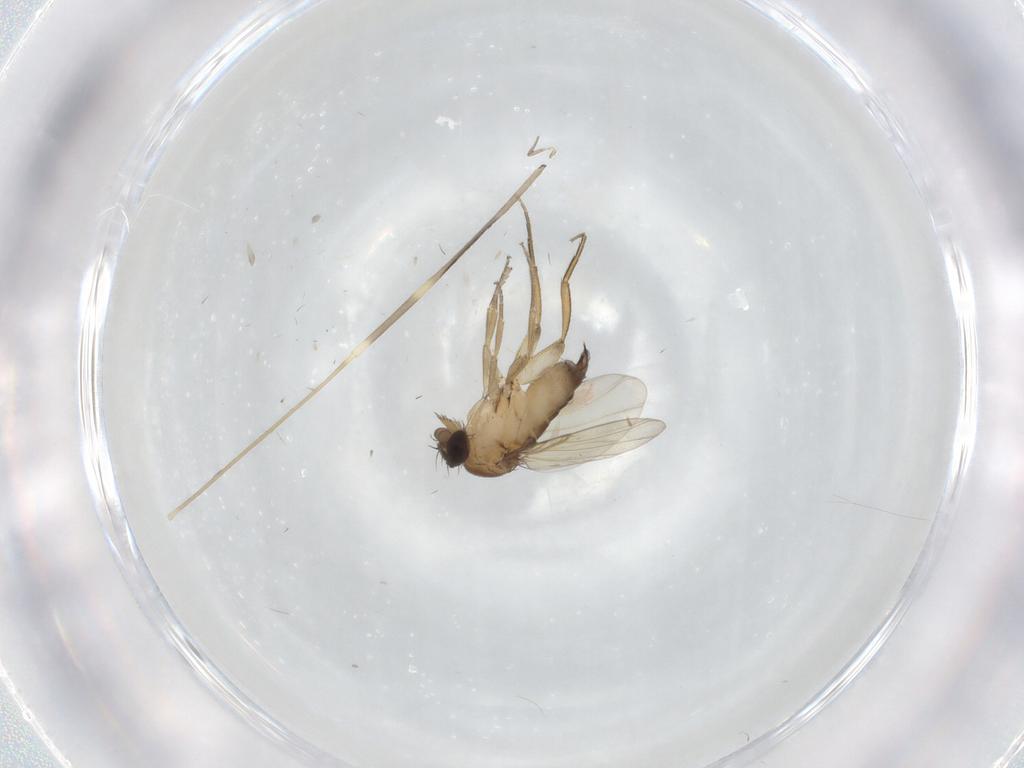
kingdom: Animalia
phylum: Arthropoda
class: Insecta
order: Diptera
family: Limoniidae
